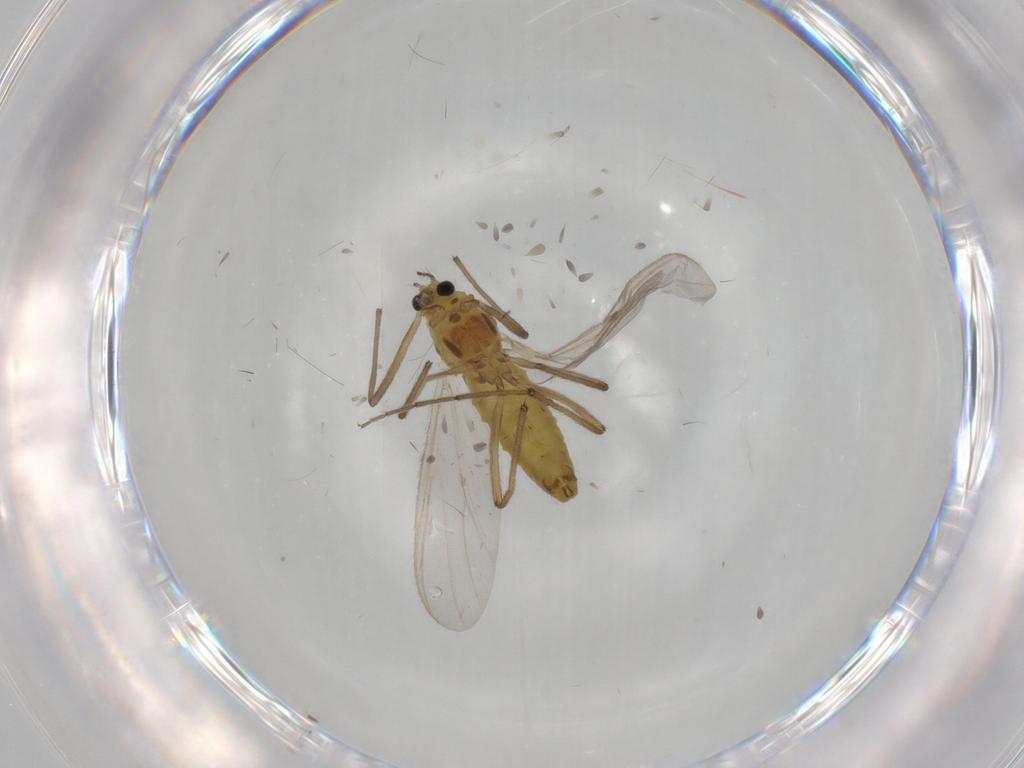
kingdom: Animalia
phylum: Arthropoda
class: Insecta
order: Diptera
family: Chironomidae
